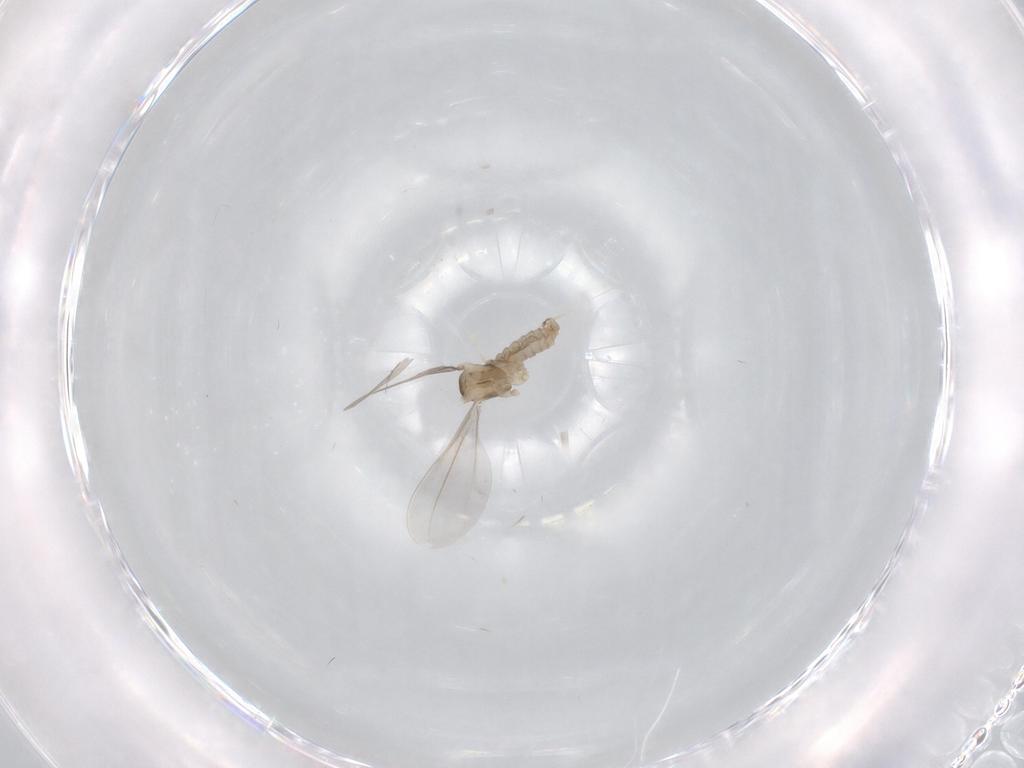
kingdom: Animalia
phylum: Arthropoda
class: Insecta
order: Diptera
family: Cecidomyiidae
